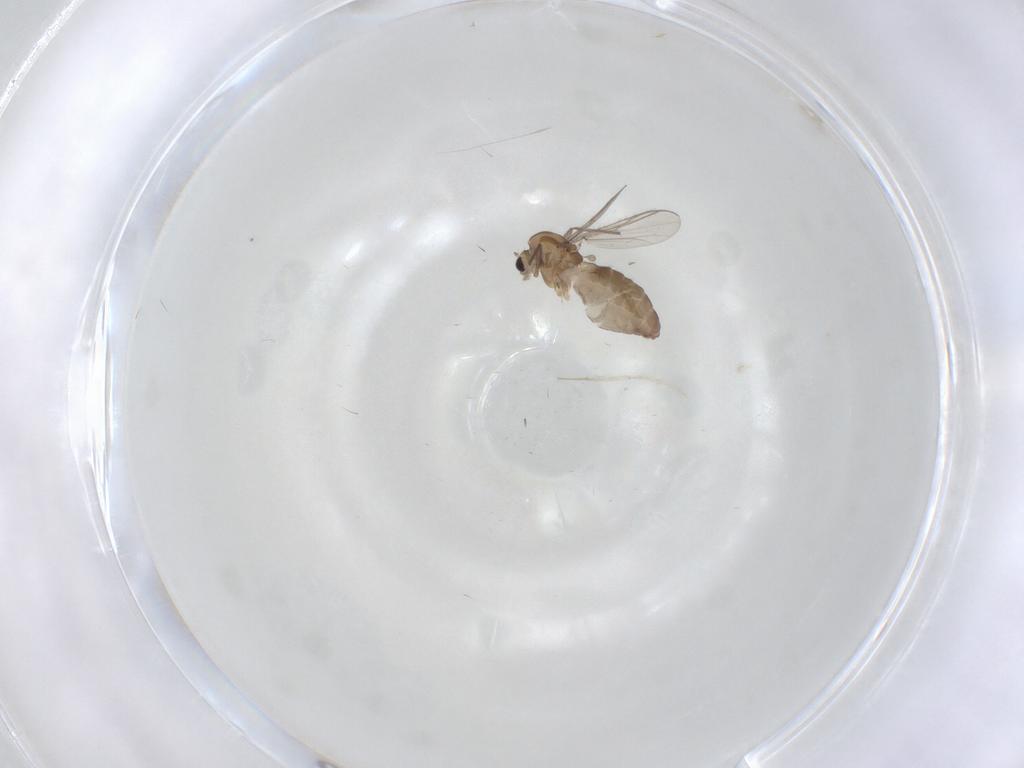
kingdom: Animalia
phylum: Arthropoda
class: Insecta
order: Diptera
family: Chironomidae
